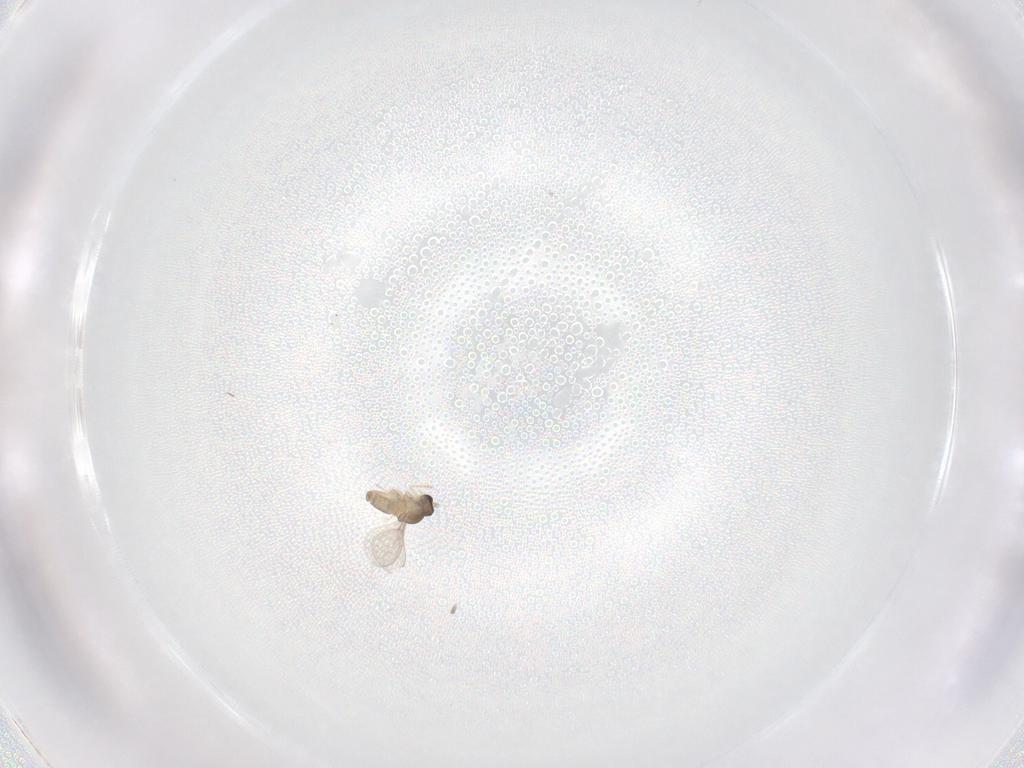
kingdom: Animalia
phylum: Arthropoda
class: Insecta
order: Diptera
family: Cecidomyiidae
